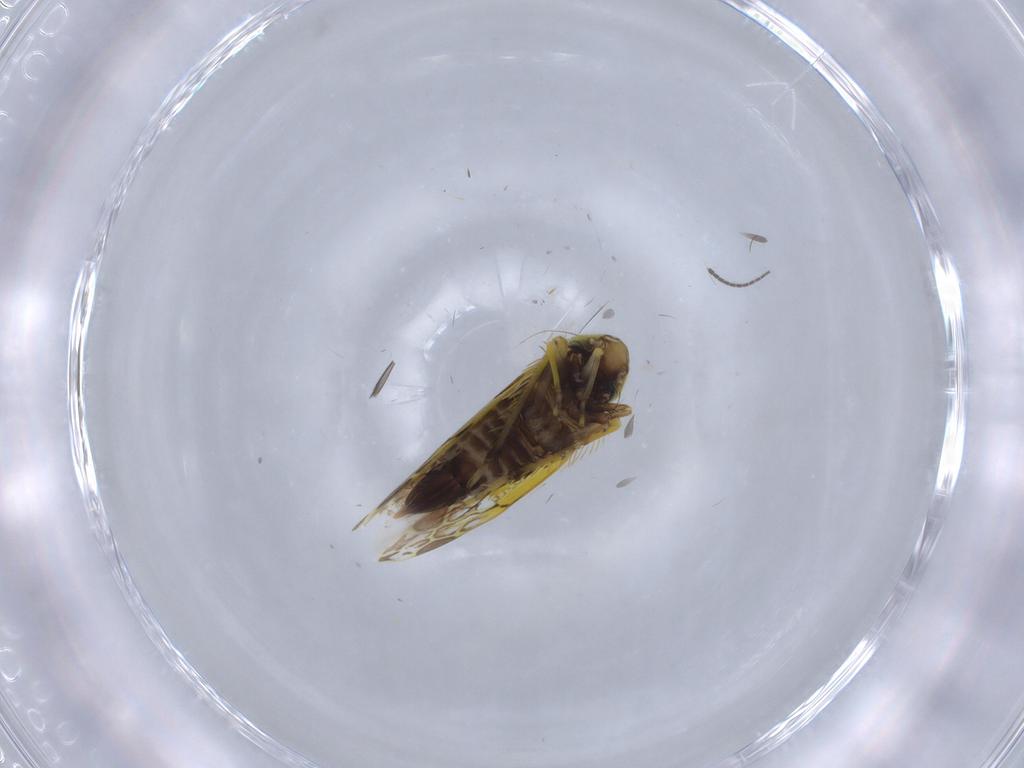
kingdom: Animalia
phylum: Arthropoda
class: Insecta
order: Hemiptera
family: Cicadellidae
